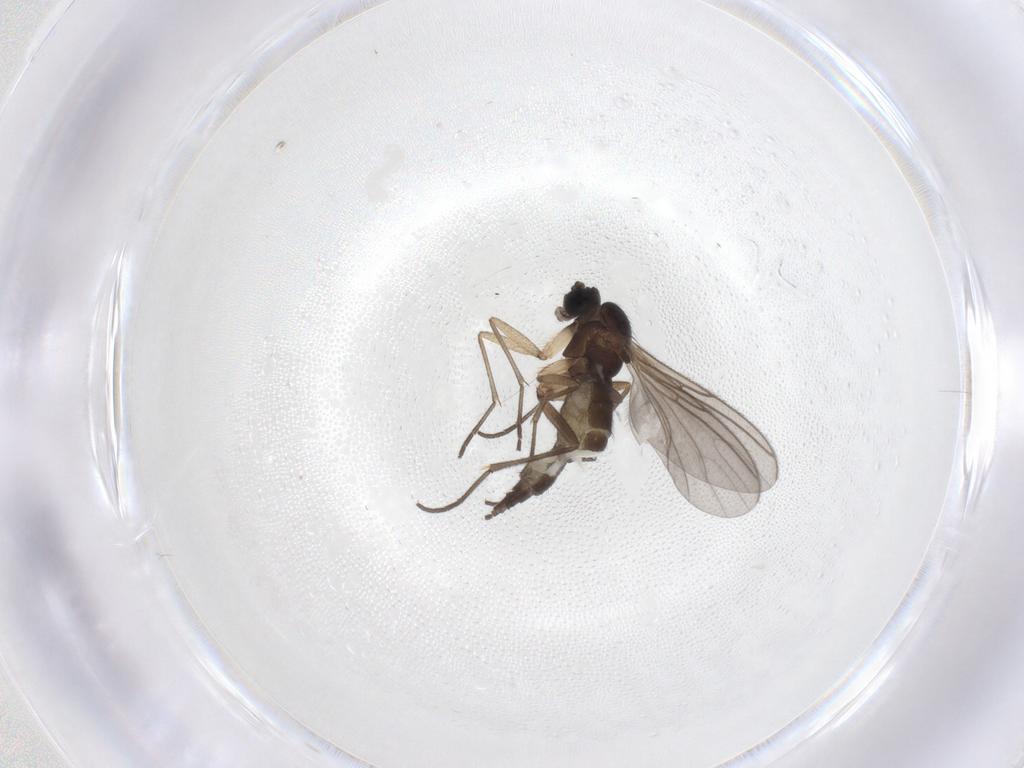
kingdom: Animalia
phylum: Arthropoda
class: Insecta
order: Diptera
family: Sciaridae
